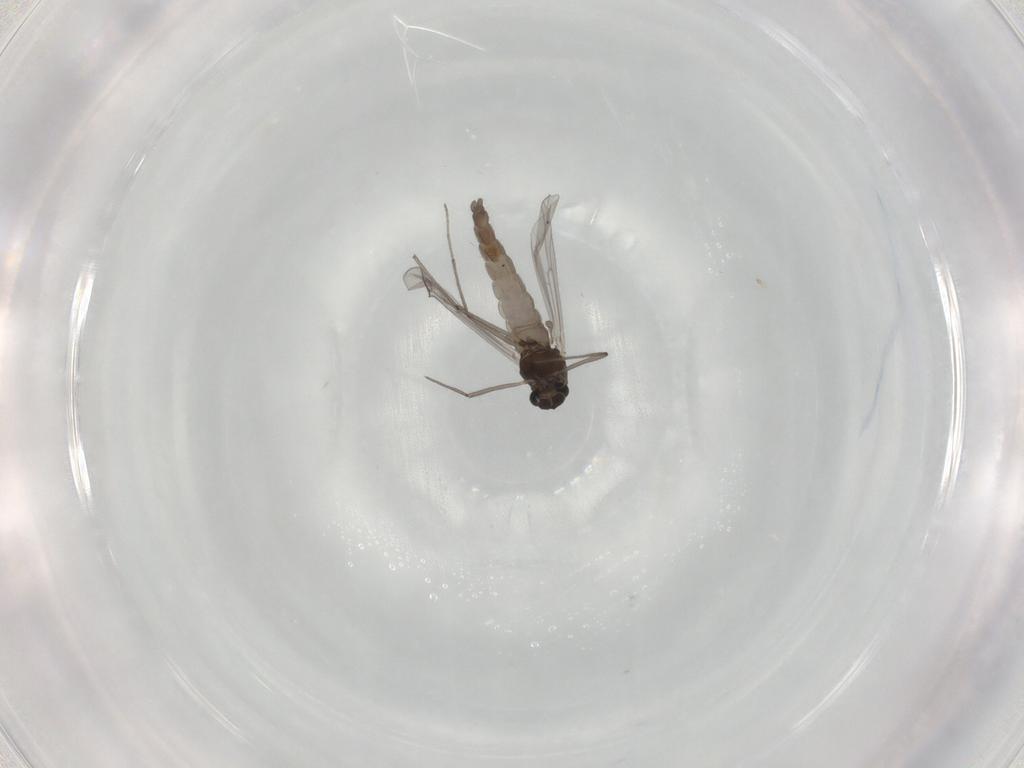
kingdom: Animalia
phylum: Arthropoda
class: Insecta
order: Diptera
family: Chironomidae
